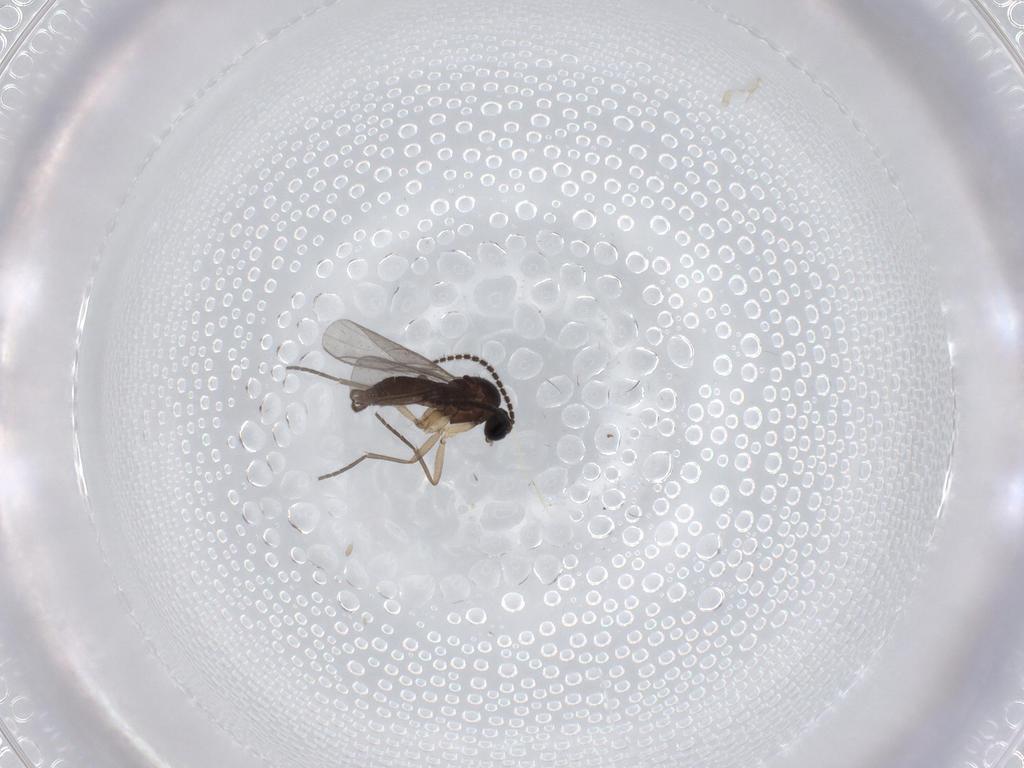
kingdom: Animalia
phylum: Arthropoda
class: Insecta
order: Diptera
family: Sciaridae
